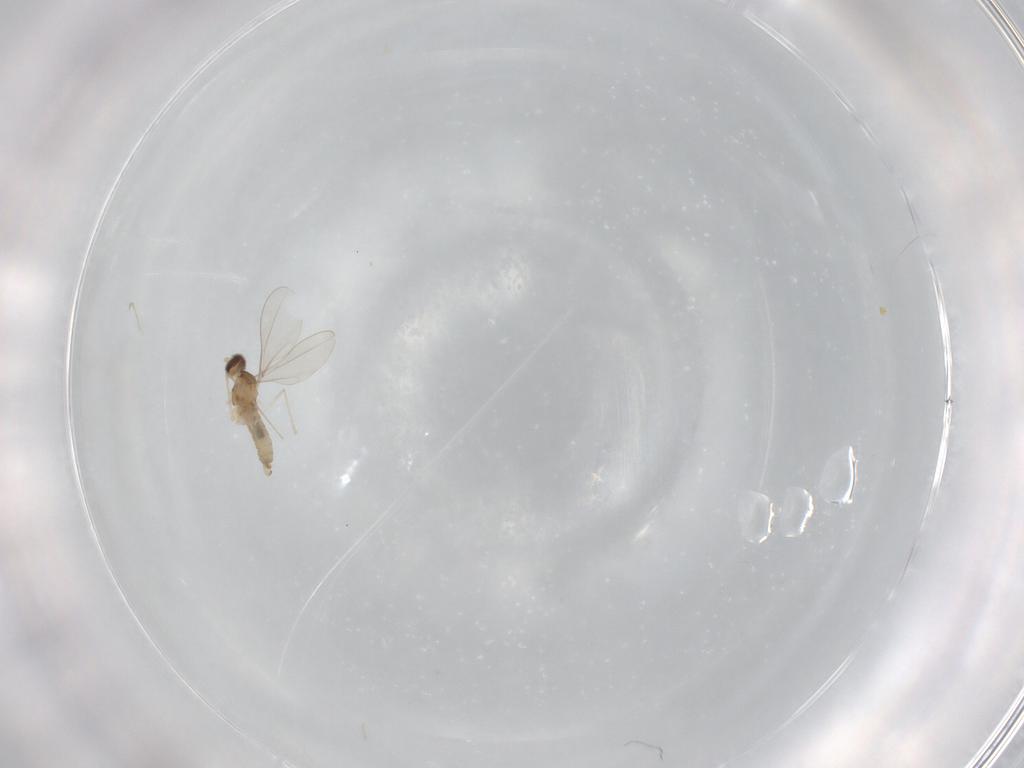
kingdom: Animalia
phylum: Arthropoda
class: Insecta
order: Diptera
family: Cecidomyiidae
